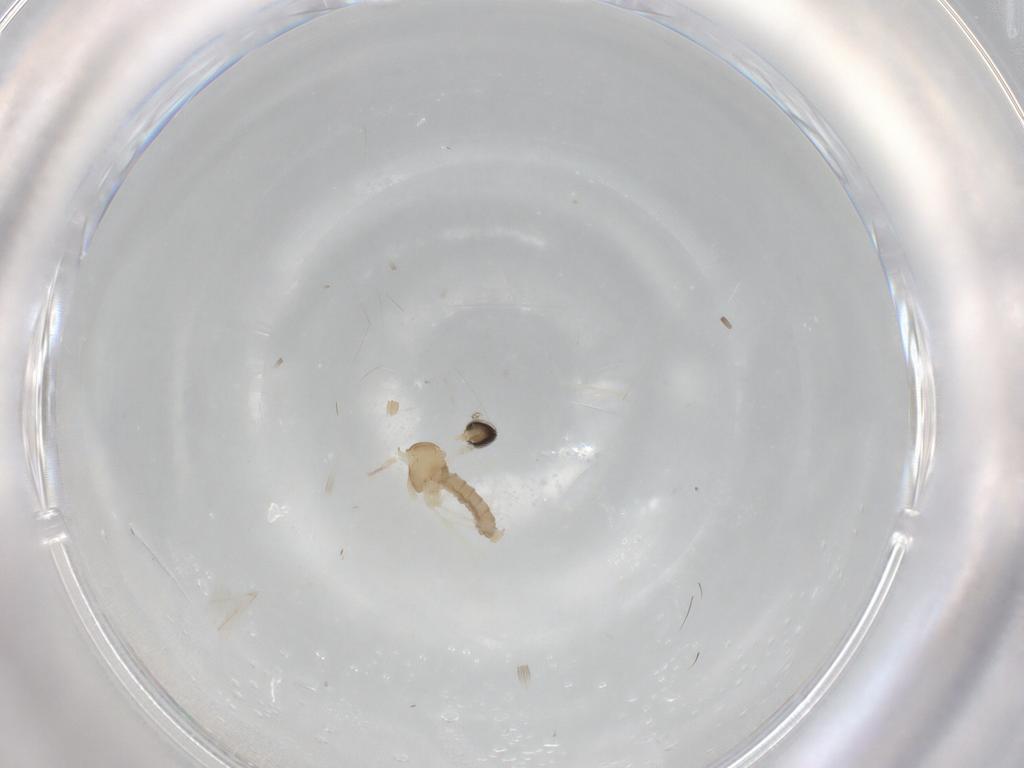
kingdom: Animalia
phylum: Arthropoda
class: Insecta
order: Diptera
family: Cecidomyiidae
